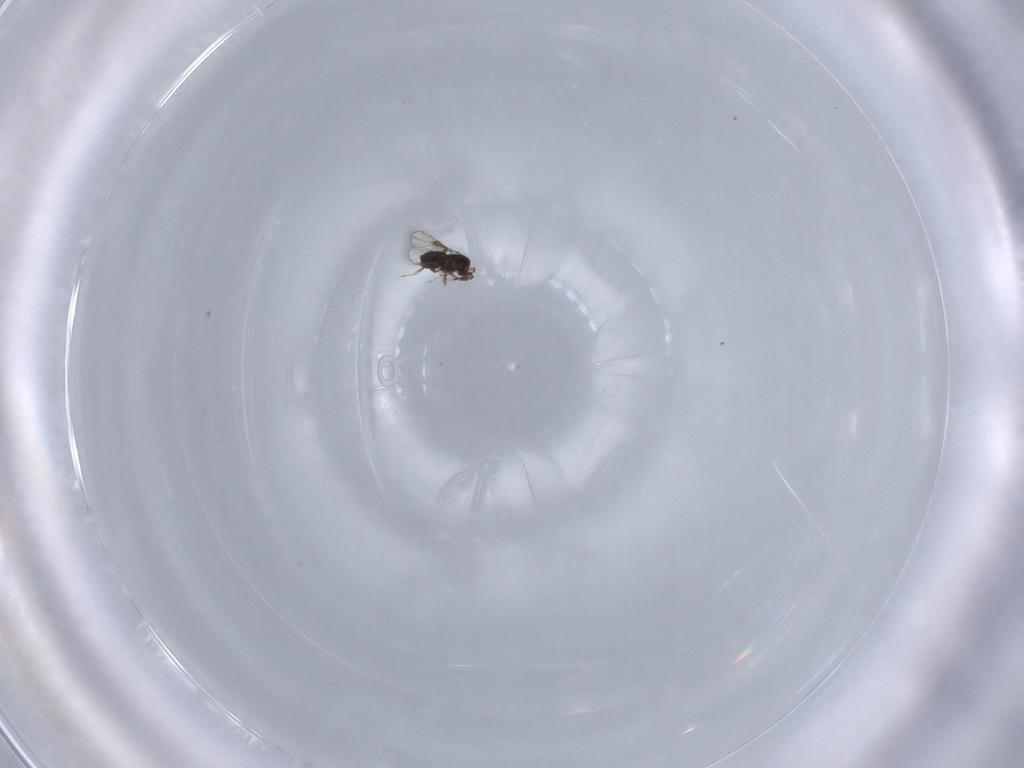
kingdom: Animalia
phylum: Arthropoda
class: Insecta
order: Hymenoptera
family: Trichogrammatidae
